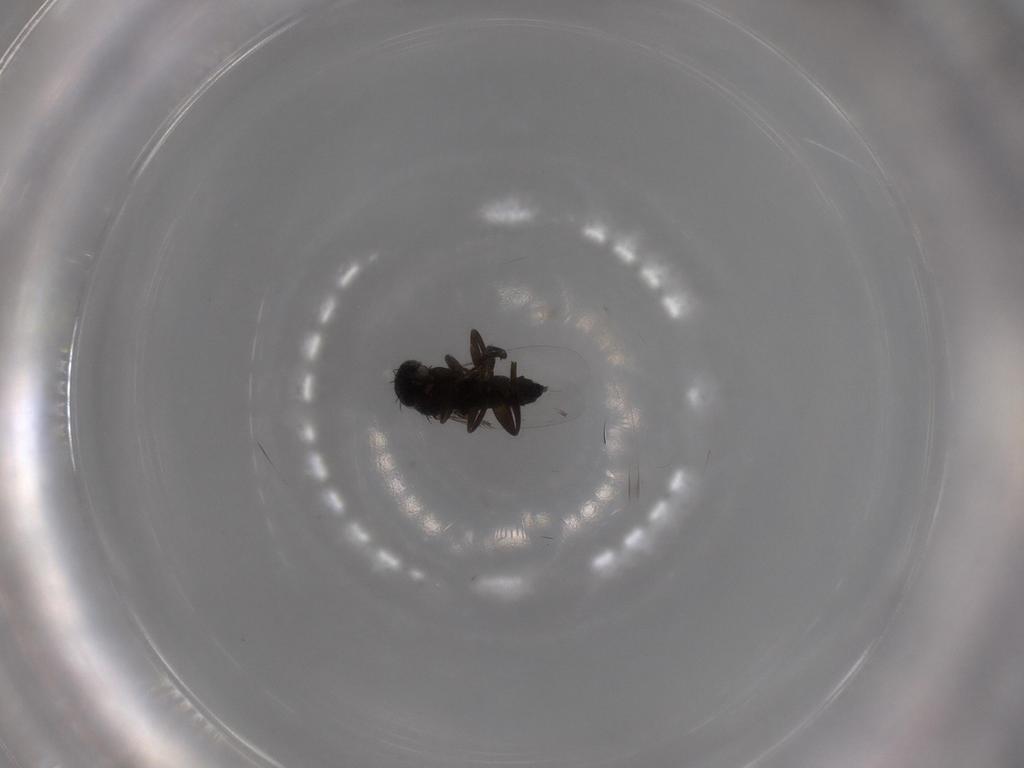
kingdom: Animalia
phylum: Arthropoda
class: Insecta
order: Diptera
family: Phoridae
